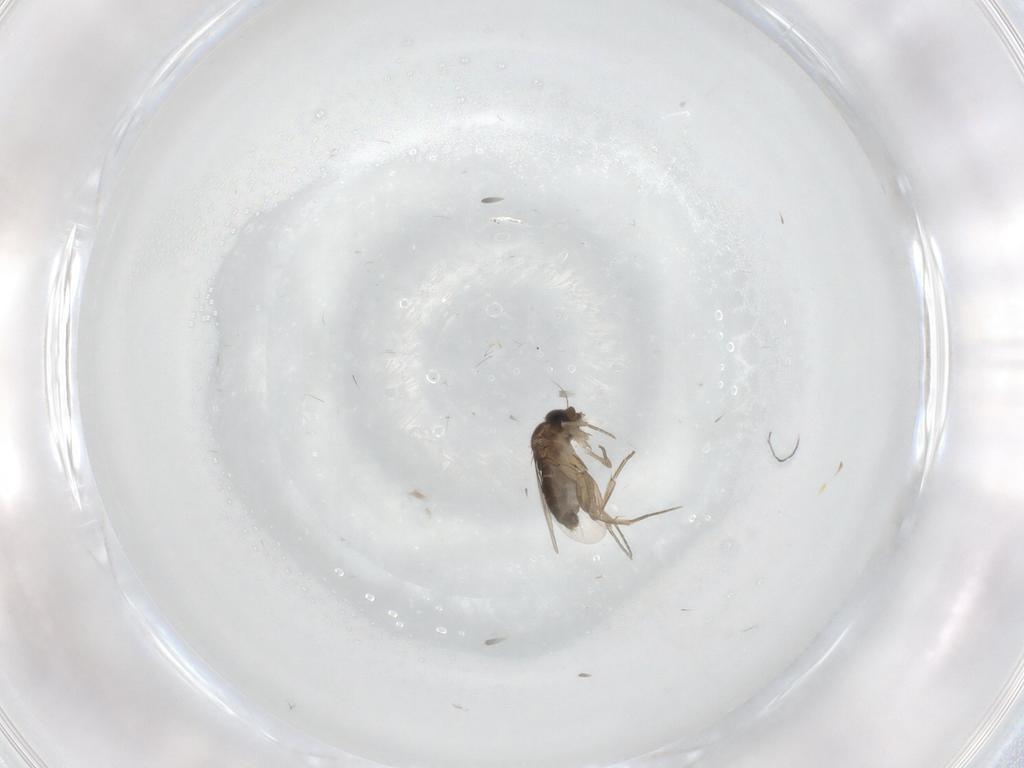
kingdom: Animalia
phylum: Arthropoda
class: Insecta
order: Diptera
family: Phoridae
